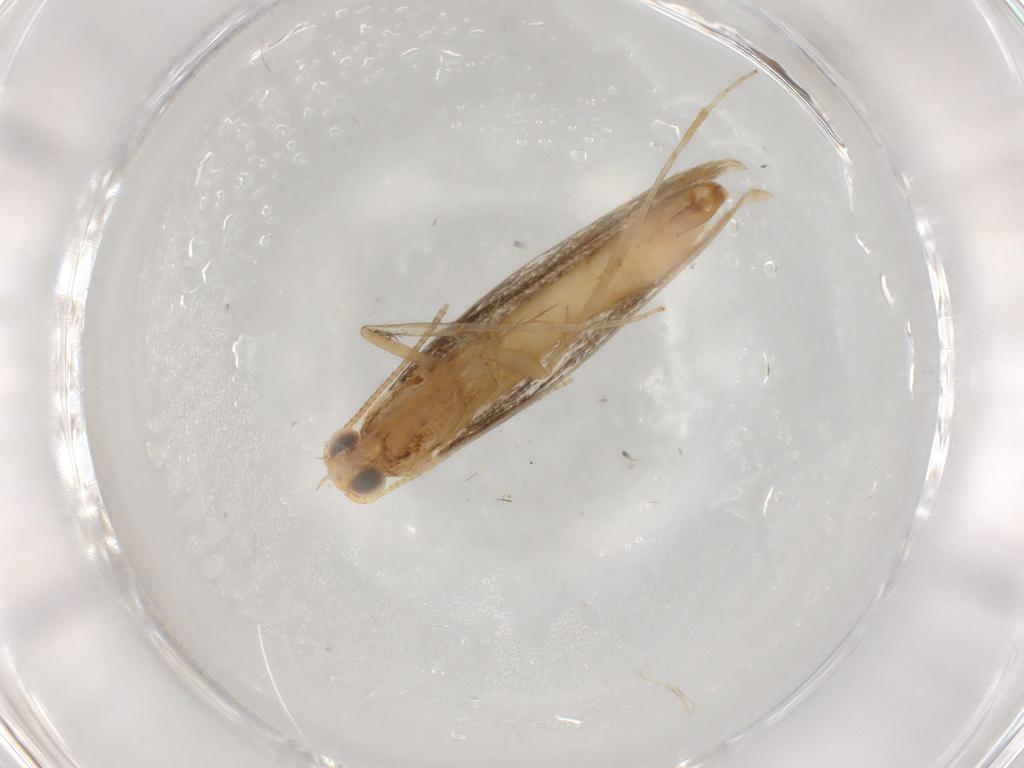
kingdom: Animalia
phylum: Arthropoda
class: Insecta
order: Lepidoptera
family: Gracillariidae
